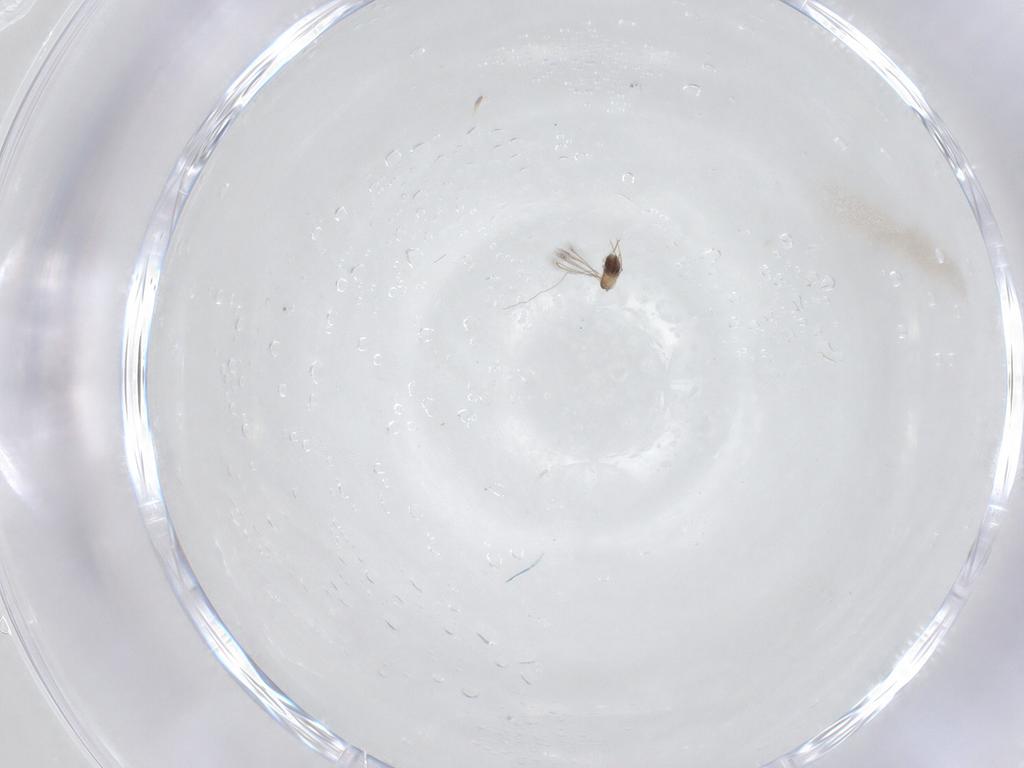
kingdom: Animalia
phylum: Arthropoda
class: Insecta
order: Hymenoptera
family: Mymaridae
